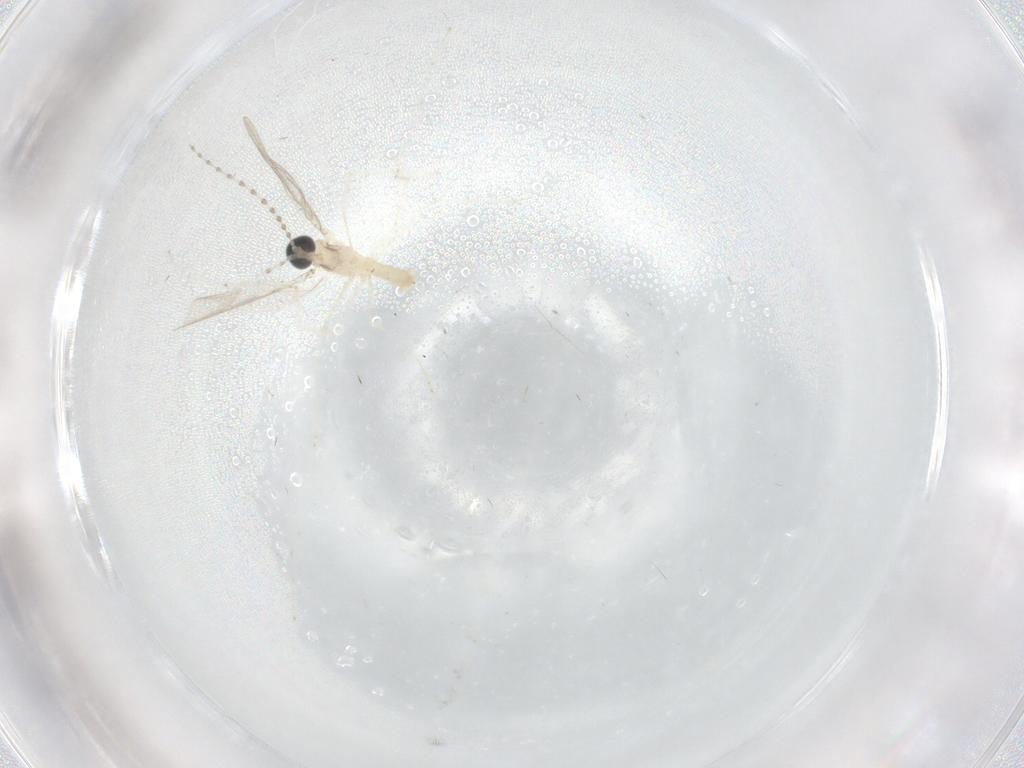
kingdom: Animalia
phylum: Arthropoda
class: Insecta
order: Diptera
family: Cecidomyiidae
